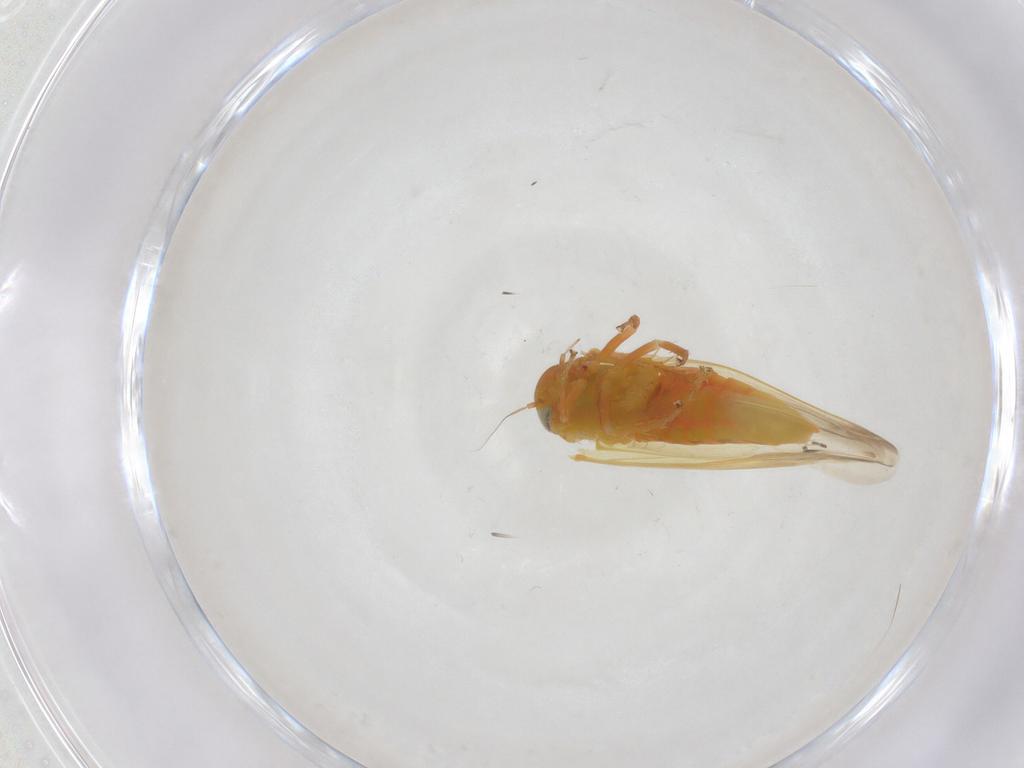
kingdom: Animalia
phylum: Arthropoda
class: Insecta
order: Hemiptera
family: Cicadellidae
